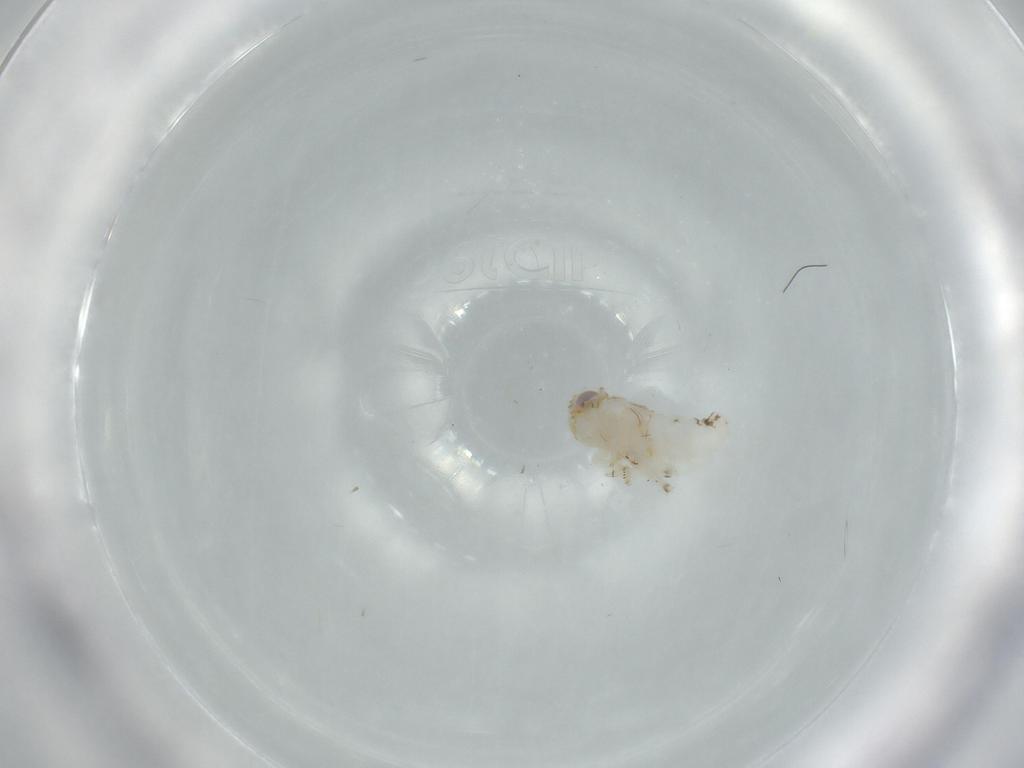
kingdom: Animalia
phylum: Arthropoda
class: Insecta
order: Hemiptera
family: Nogodinidae
